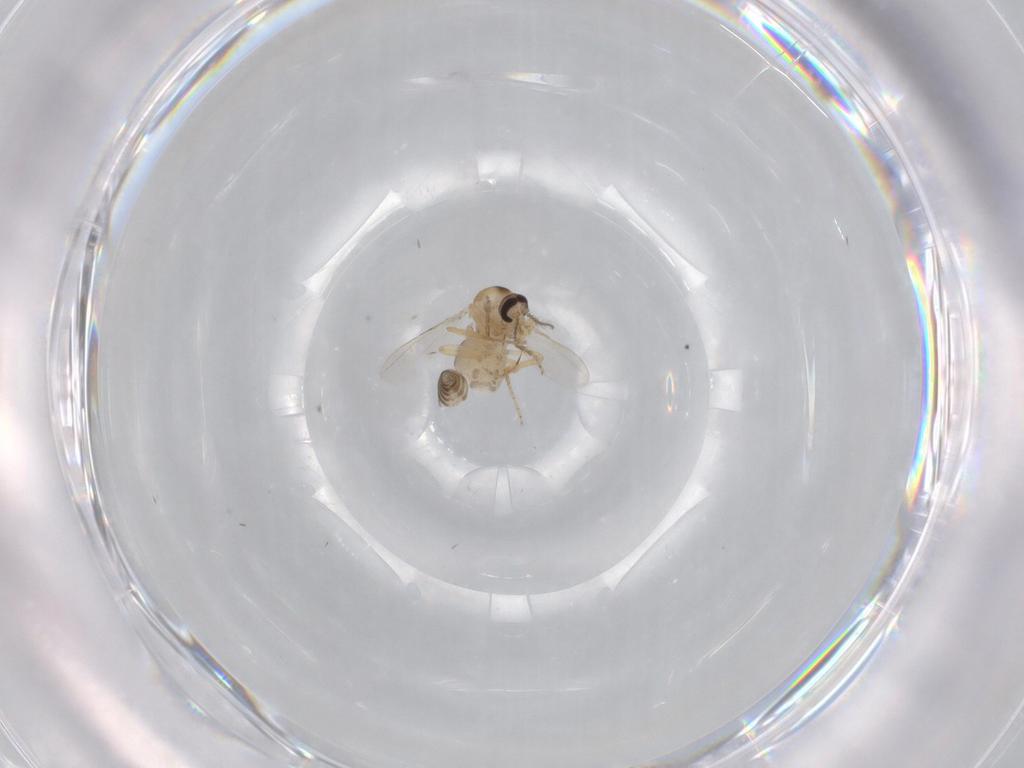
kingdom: Animalia
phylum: Arthropoda
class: Insecta
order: Diptera
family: Ceratopogonidae
